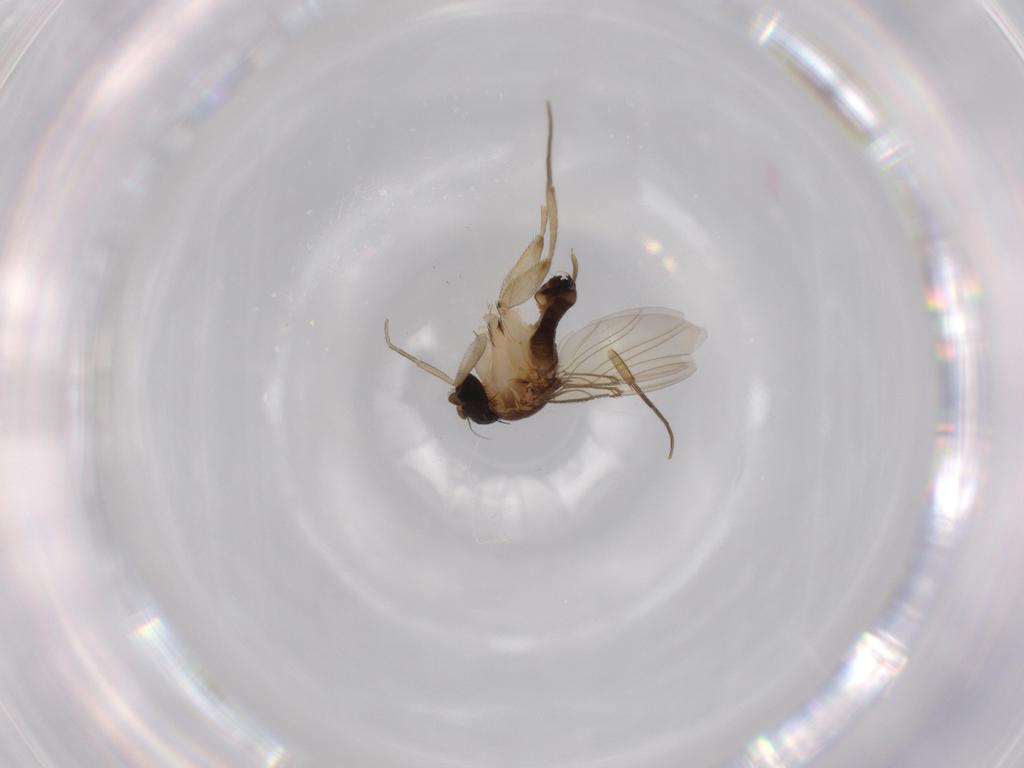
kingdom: Animalia
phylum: Arthropoda
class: Insecta
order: Diptera
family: Phoridae
